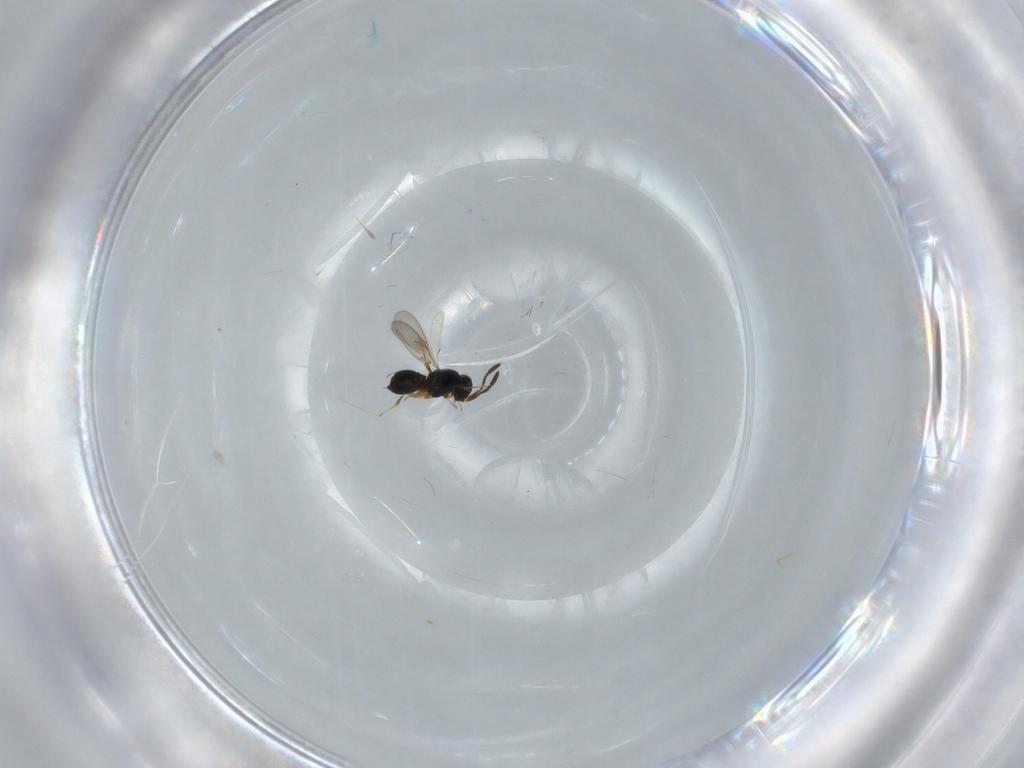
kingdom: Animalia
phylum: Arthropoda
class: Insecta
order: Hymenoptera
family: Scelionidae
